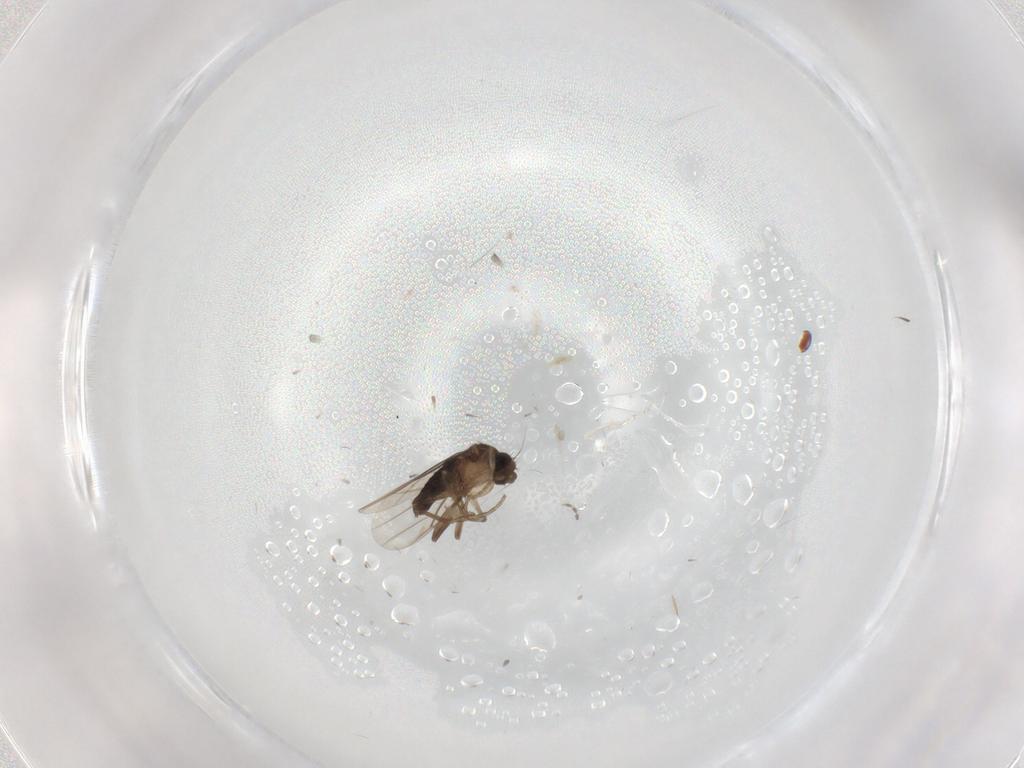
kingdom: Animalia
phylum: Arthropoda
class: Insecta
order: Diptera
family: Phoridae
